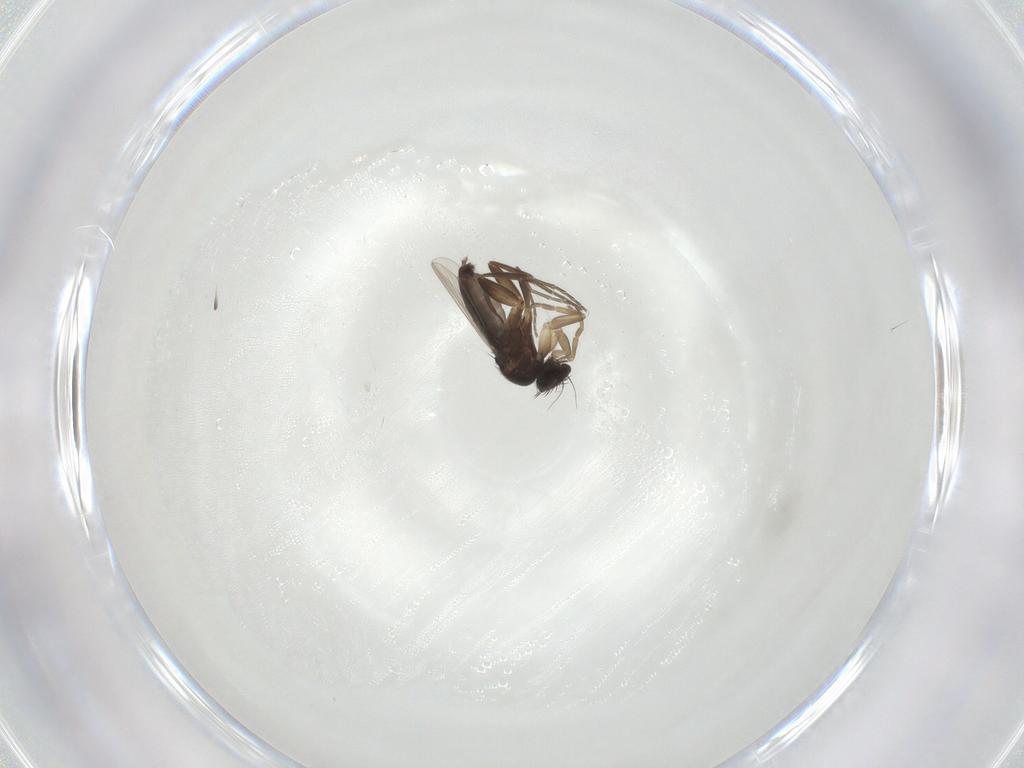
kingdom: Animalia
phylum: Arthropoda
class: Insecta
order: Diptera
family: Phoridae
